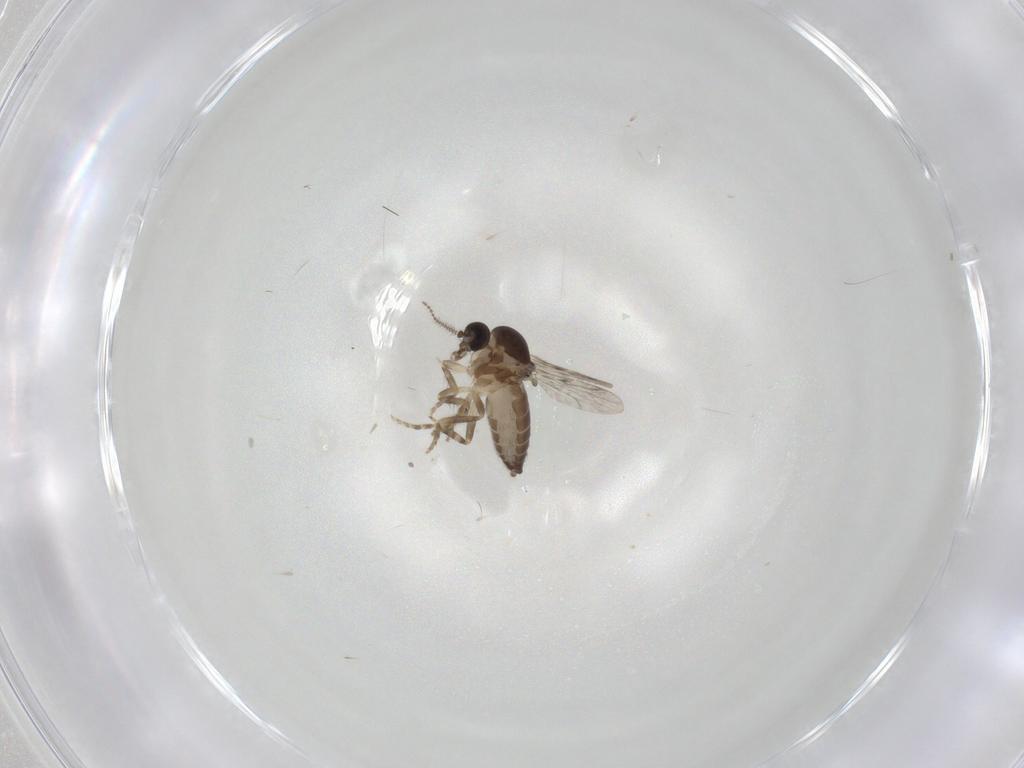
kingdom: Animalia
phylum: Arthropoda
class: Insecta
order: Diptera
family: Ceratopogonidae
